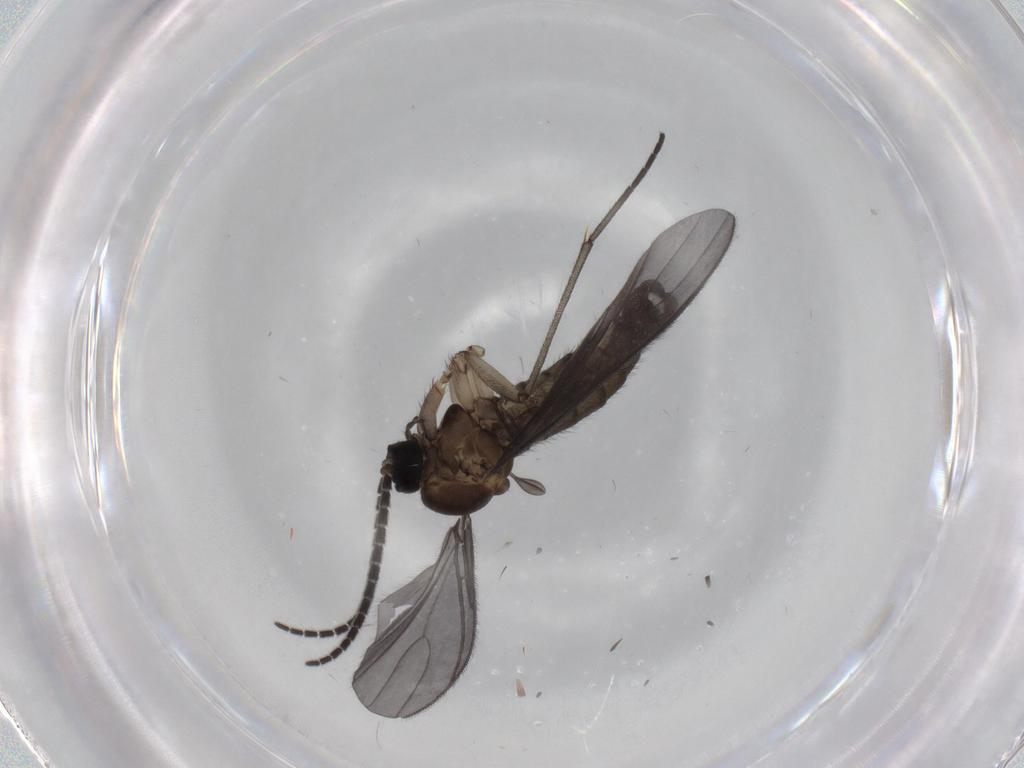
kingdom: Animalia
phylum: Arthropoda
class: Insecta
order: Diptera
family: Sciaridae
